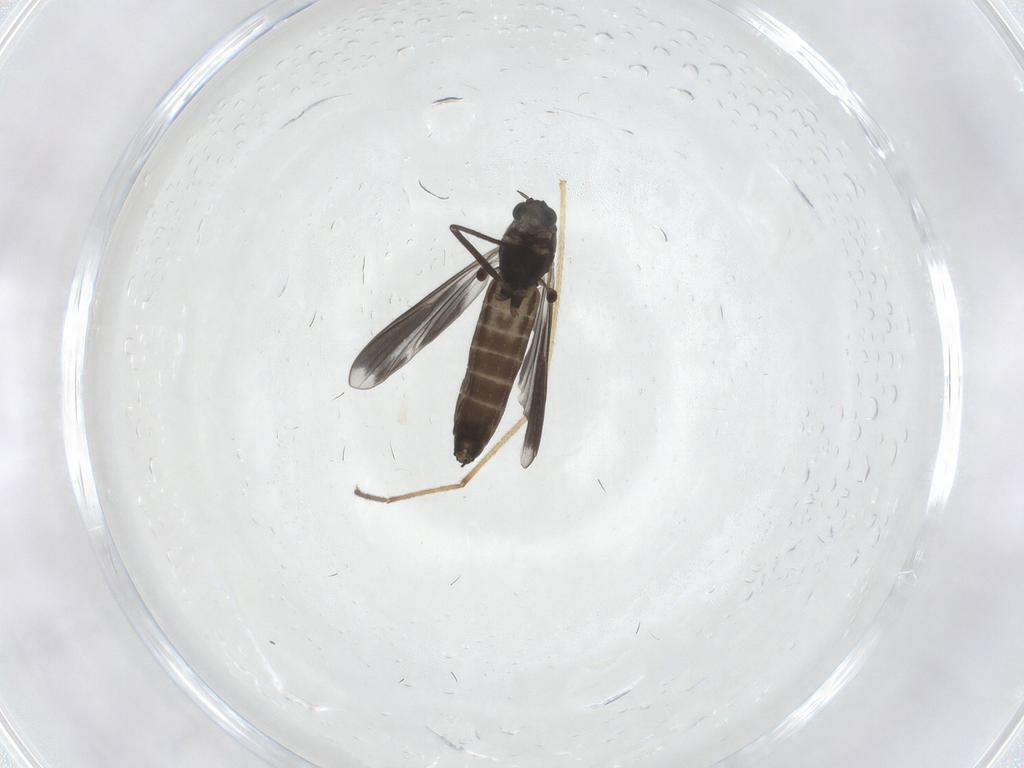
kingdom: Animalia
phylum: Arthropoda
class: Insecta
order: Diptera
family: Chironomidae
